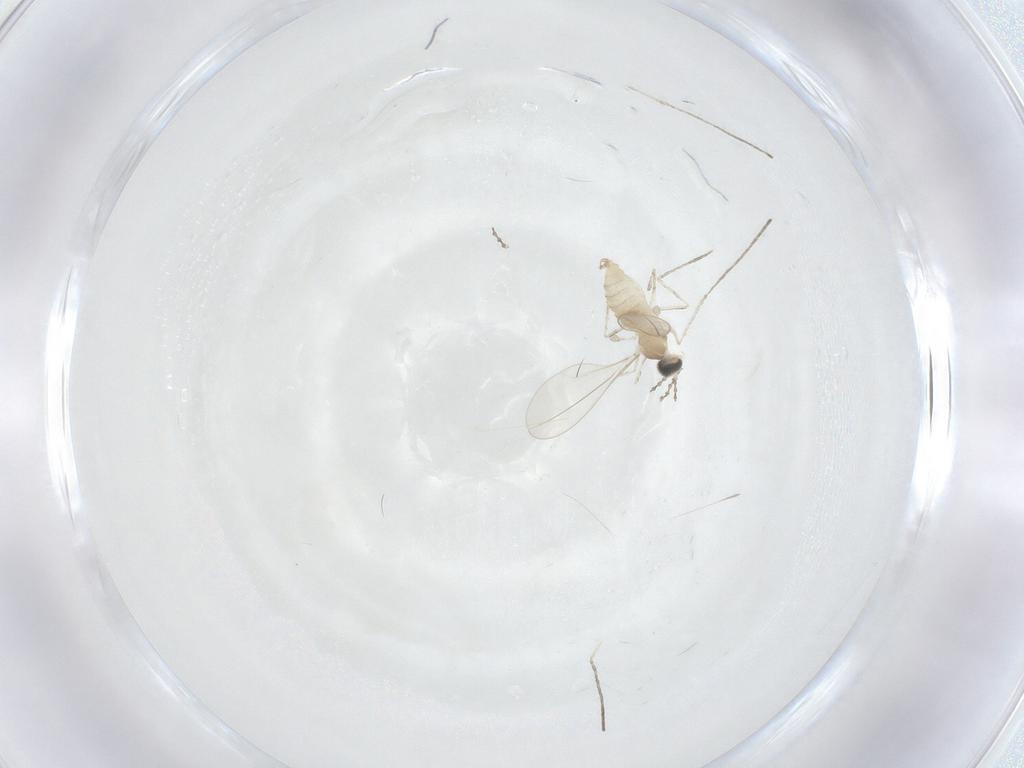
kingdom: Animalia
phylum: Arthropoda
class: Insecta
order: Diptera
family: Cecidomyiidae
